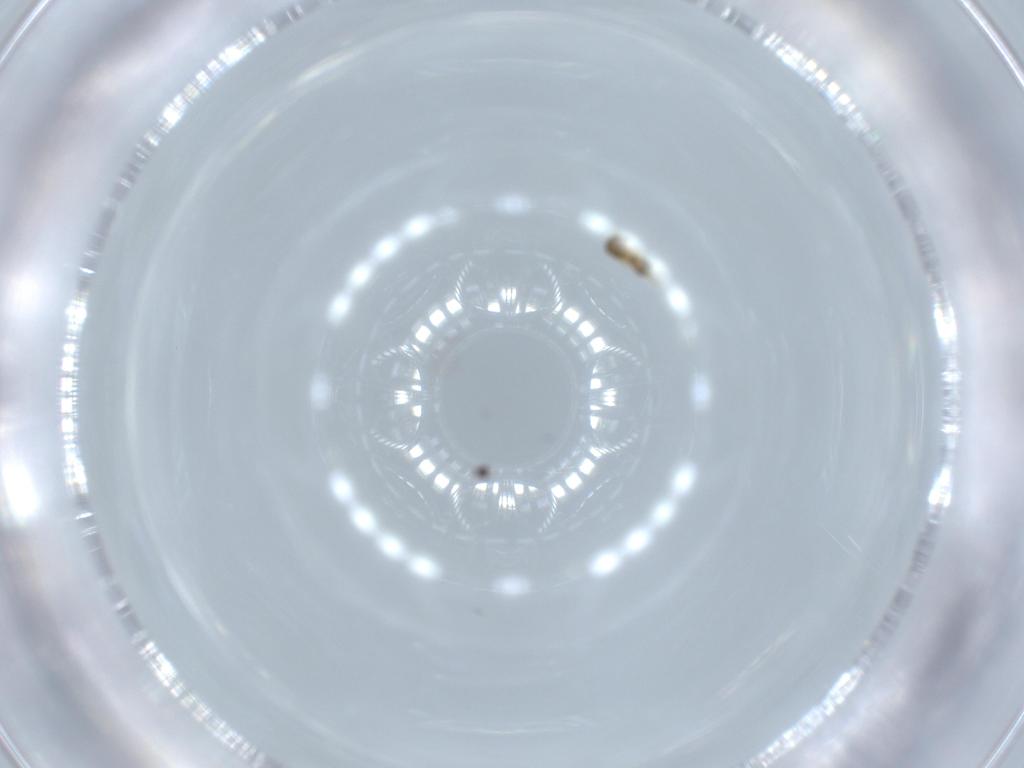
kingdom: Animalia
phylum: Arthropoda
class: Insecta
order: Hymenoptera
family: Platygastridae
